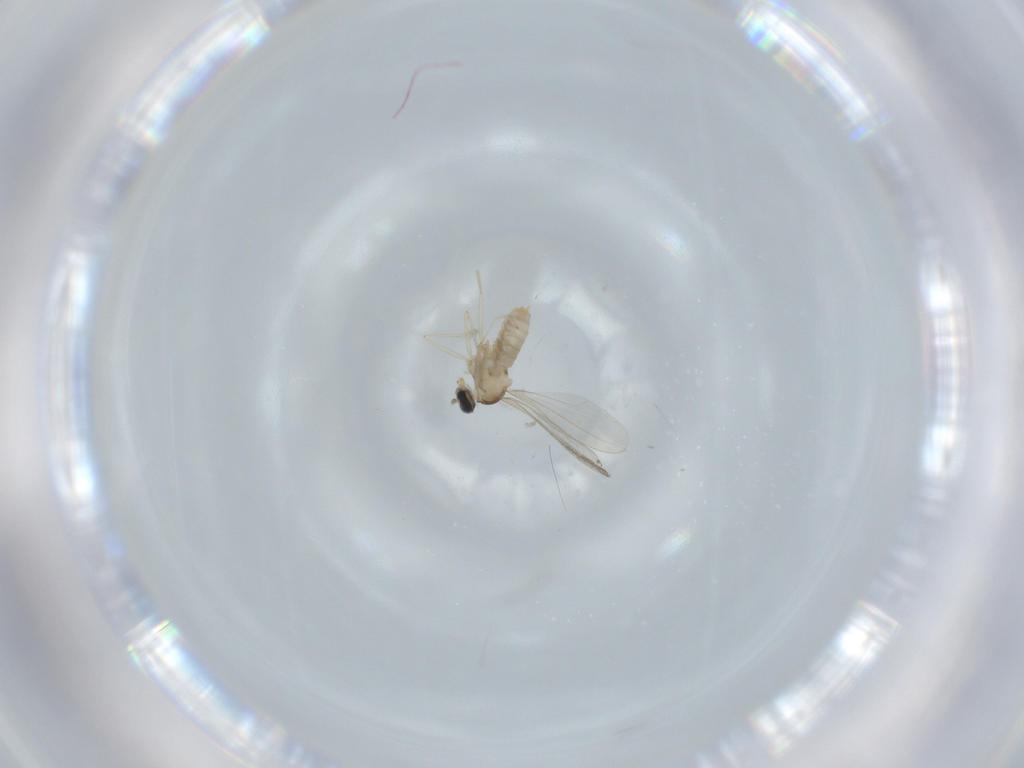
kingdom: Animalia
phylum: Arthropoda
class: Insecta
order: Diptera
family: Cecidomyiidae
